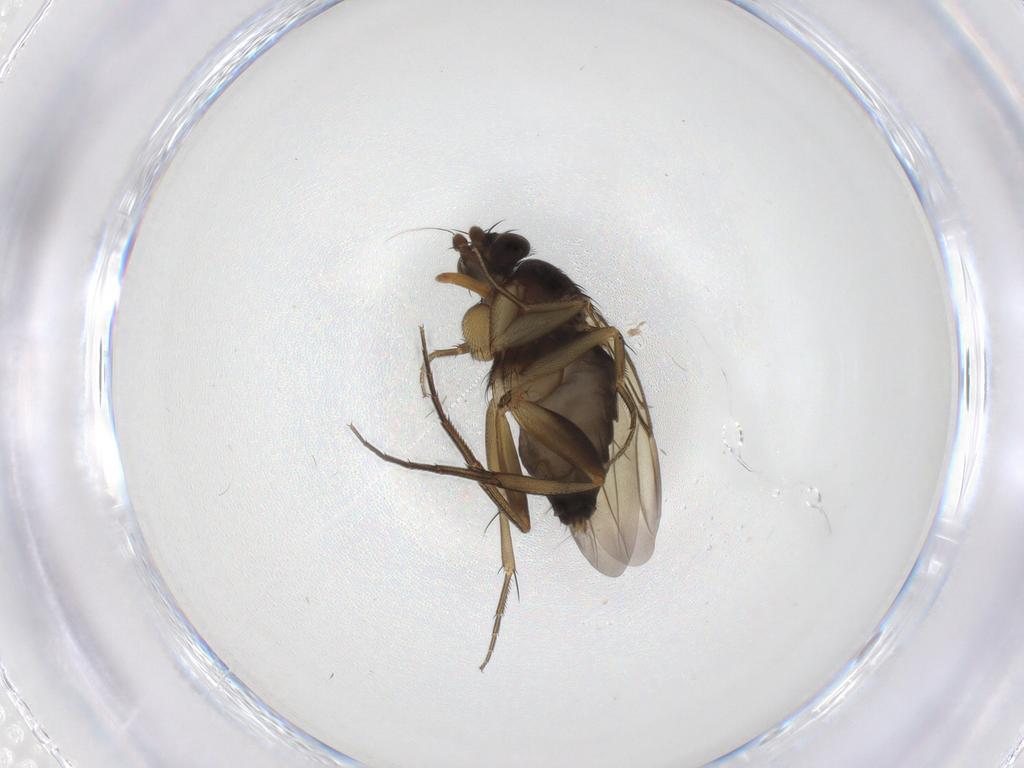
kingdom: Animalia
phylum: Arthropoda
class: Insecta
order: Diptera
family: Phoridae
